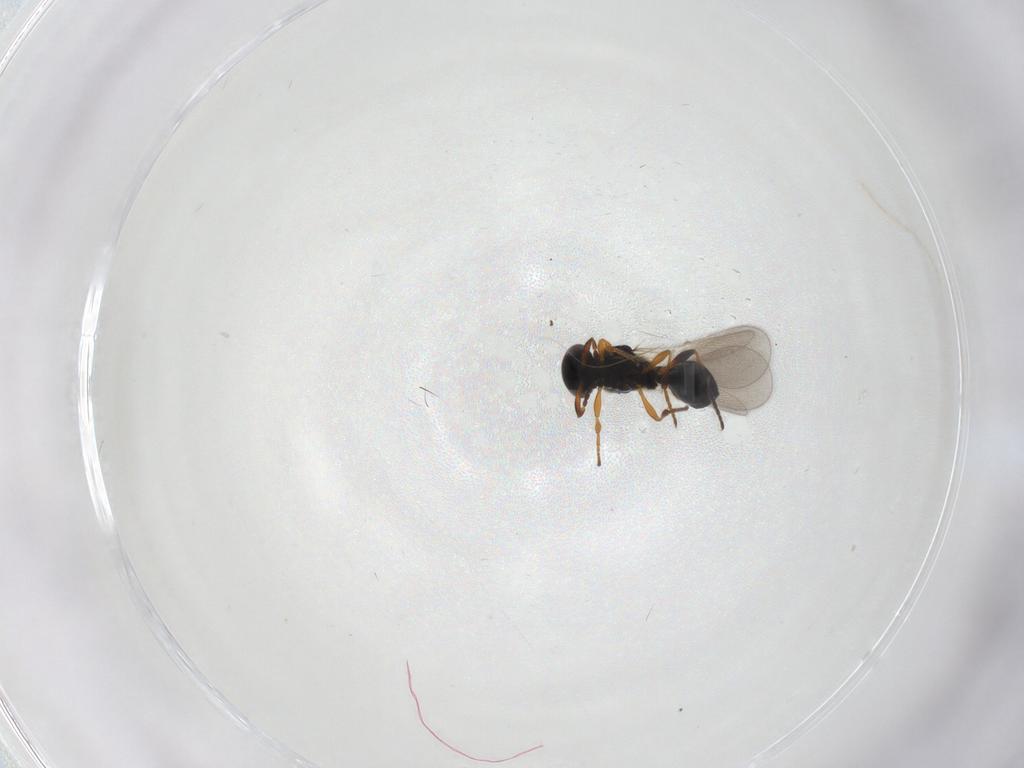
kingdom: Animalia
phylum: Arthropoda
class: Insecta
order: Hymenoptera
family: Platygastridae
